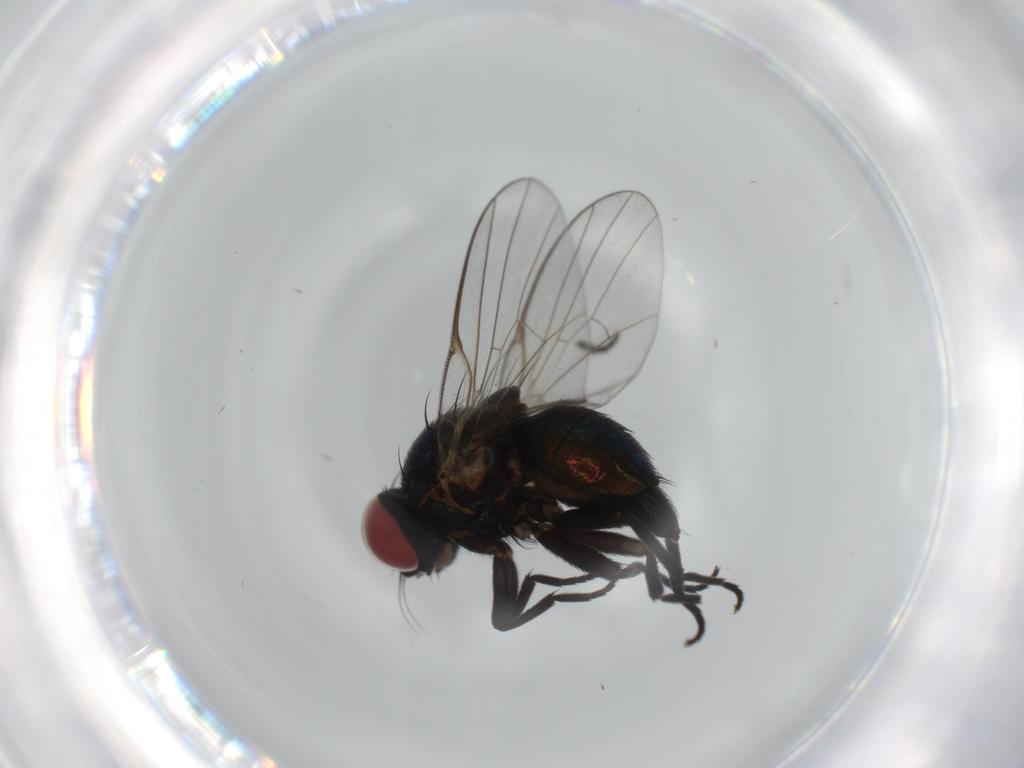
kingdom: Animalia
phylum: Arthropoda
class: Insecta
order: Diptera
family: Agromyzidae
